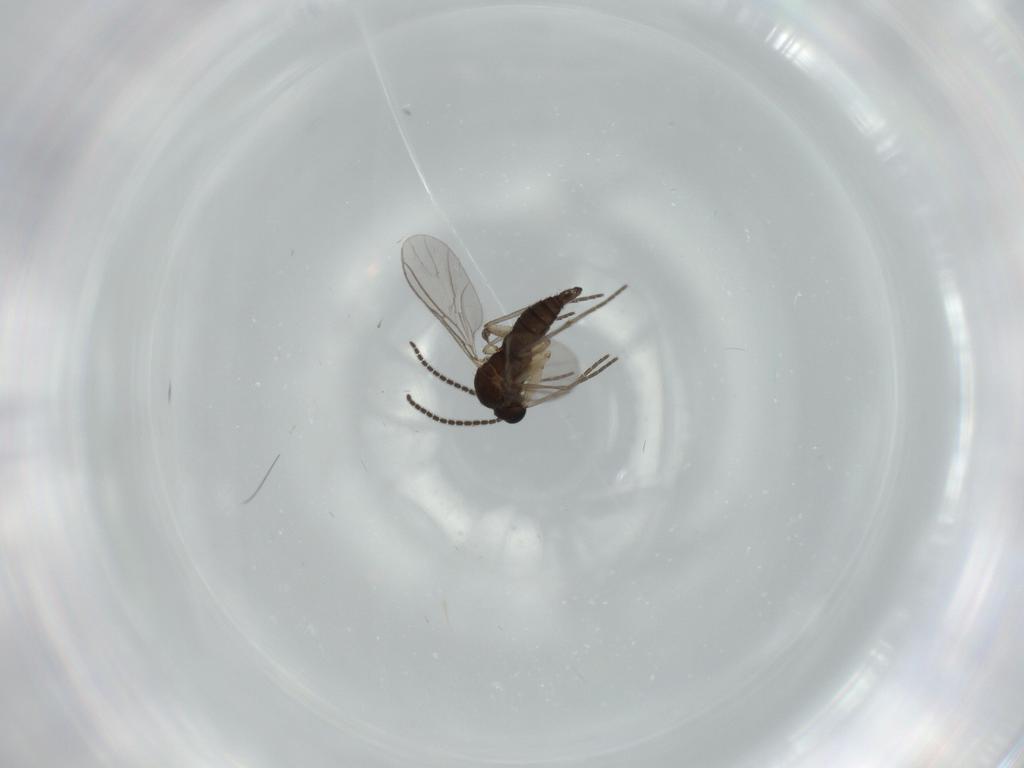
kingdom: Animalia
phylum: Arthropoda
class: Insecta
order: Diptera
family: Sciaridae
